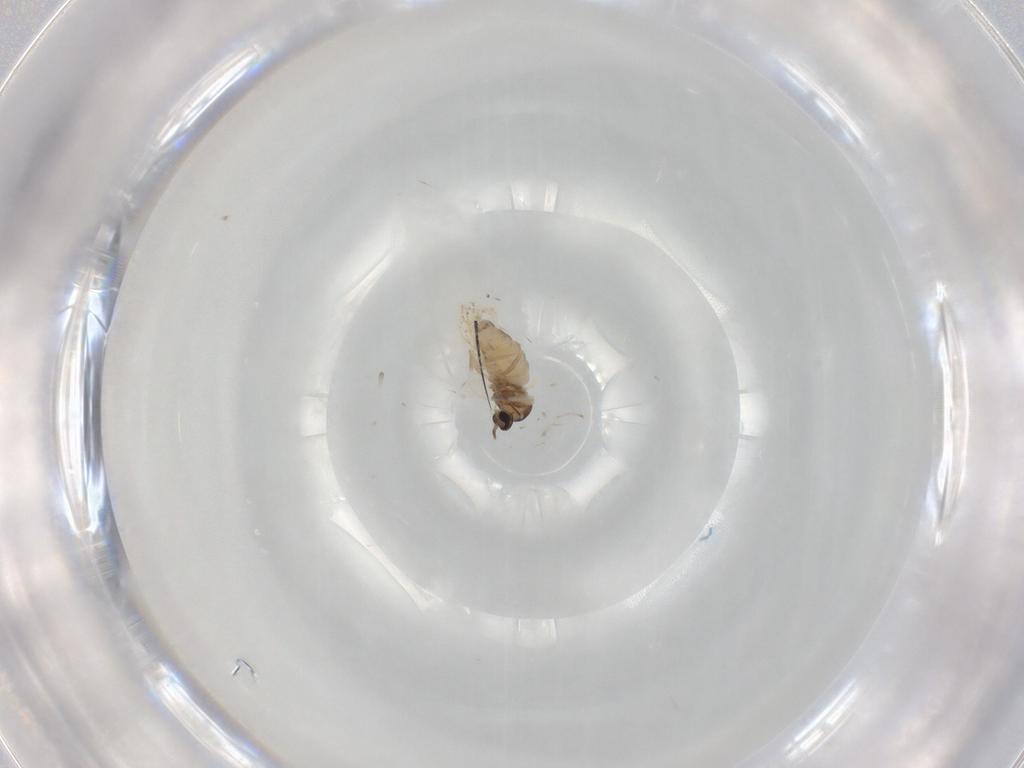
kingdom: Animalia
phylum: Arthropoda
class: Insecta
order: Diptera
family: Cecidomyiidae
